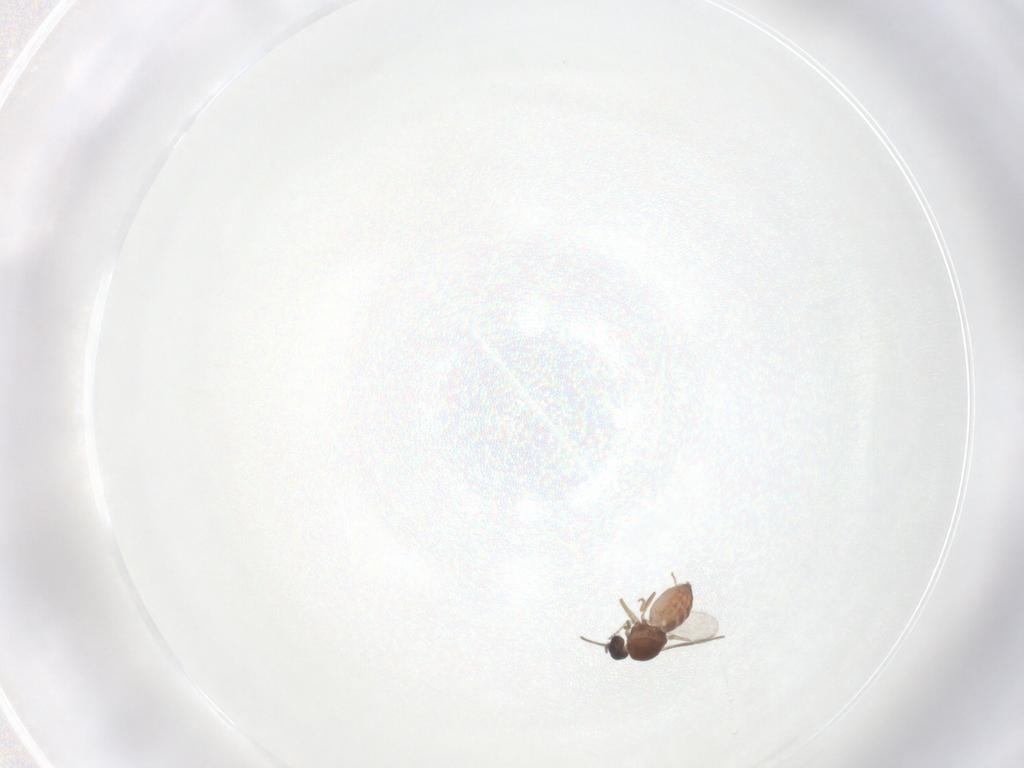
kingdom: Animalia
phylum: Arthropoda
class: Insecta
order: Diptera
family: Ceratopogonidae
